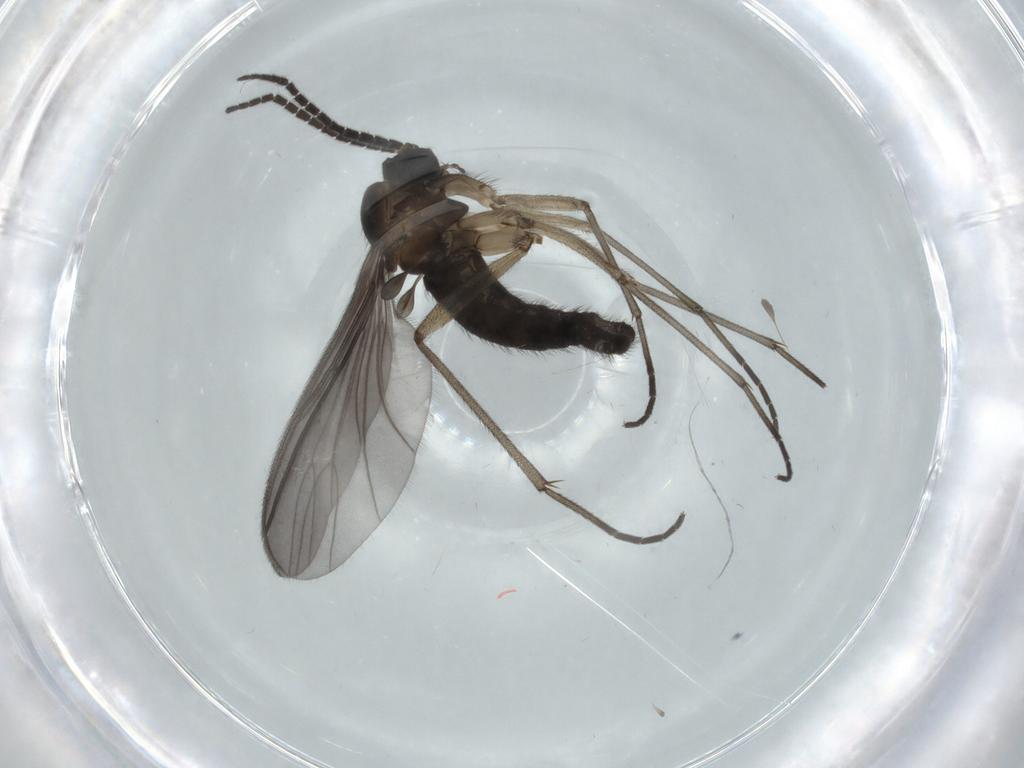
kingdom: Animalia
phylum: Arthropoda
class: Insecta
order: Diptera
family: Sciaridae
